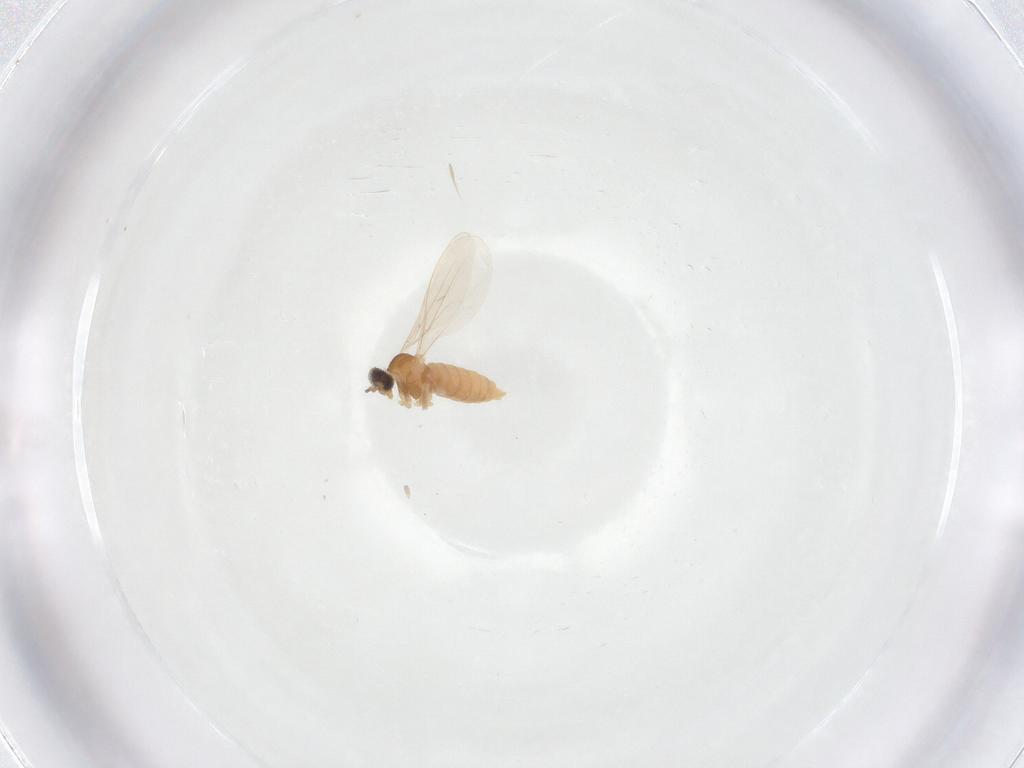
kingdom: Animalia
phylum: Arthropoda
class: Insecta
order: Diptera
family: Cecidomyiidae
